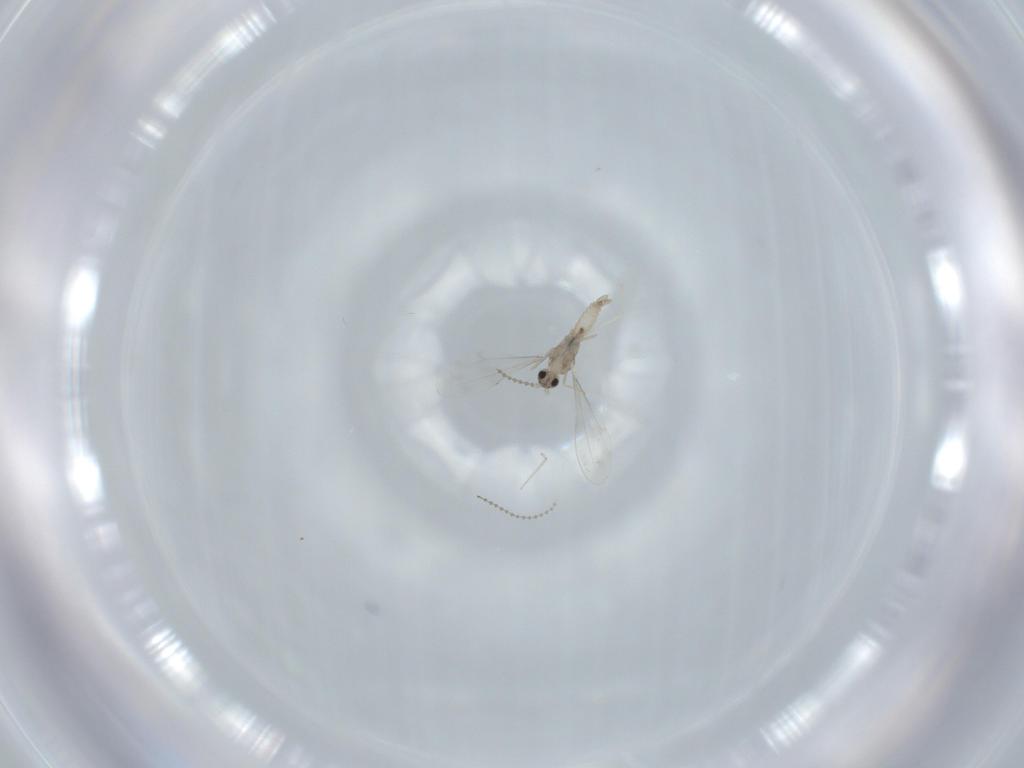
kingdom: Animalia
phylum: Arthropoda
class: Insecta
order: Diptera
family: Cecidomyiidae
